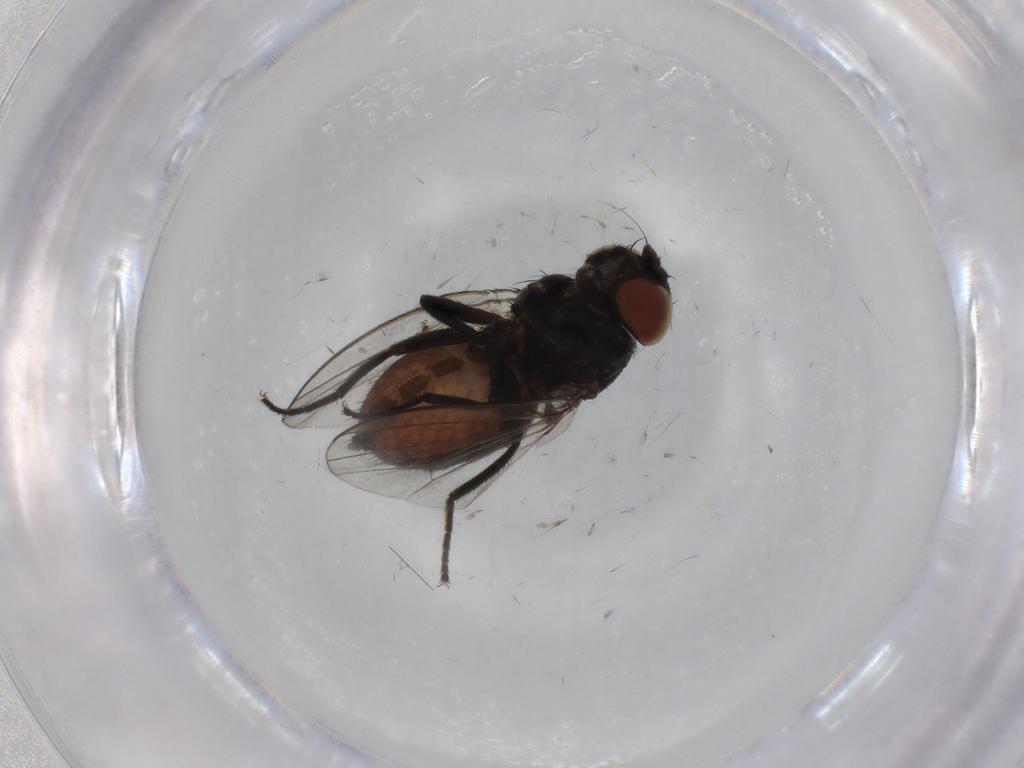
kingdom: Animalia
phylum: Arthropoda
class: Insecta
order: Diptera
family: Milichiidae
